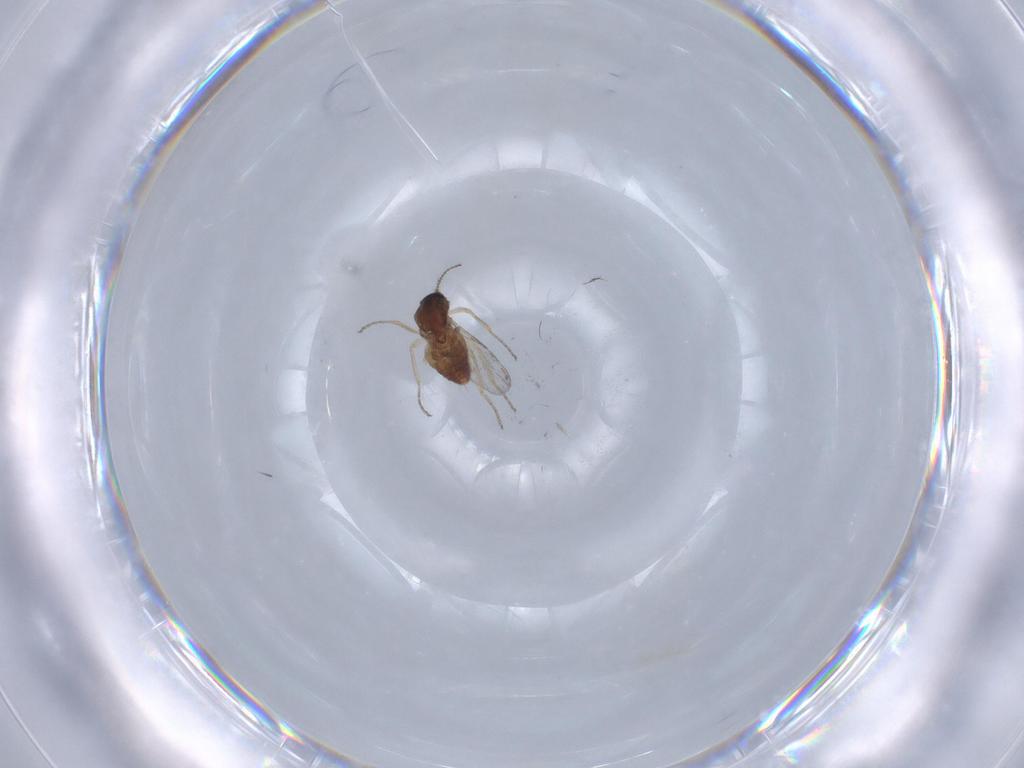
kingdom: Animalia
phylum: Arthropoda
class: Insecta
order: Diptera
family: Ceratopogonidae
